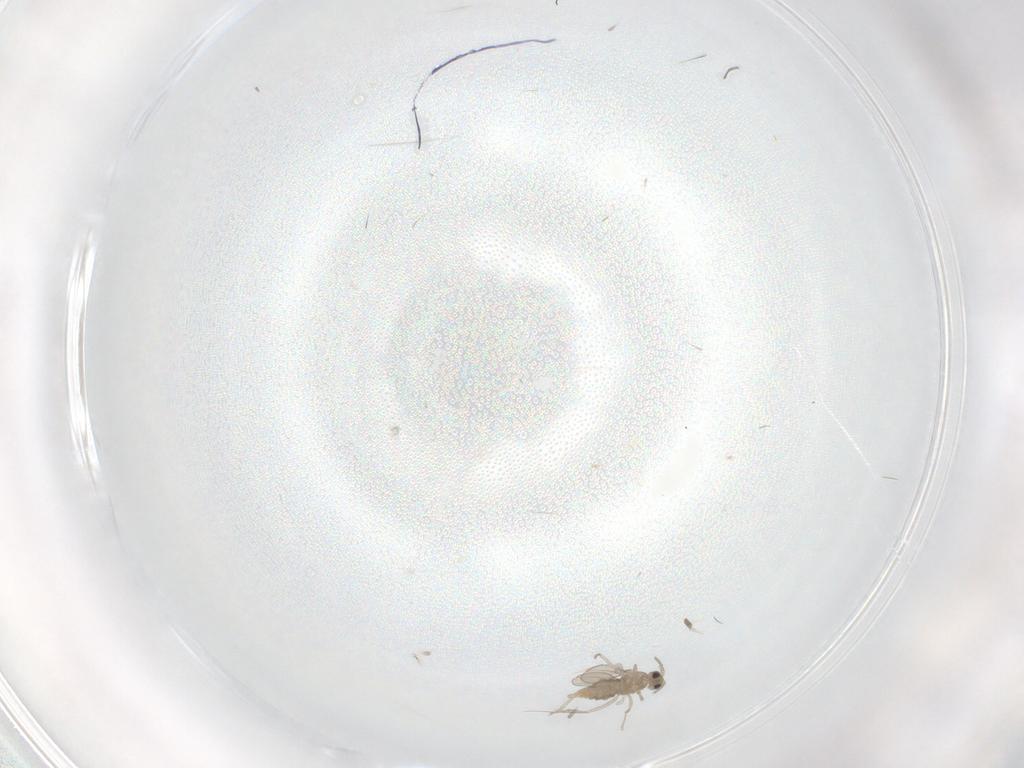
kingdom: Animalia
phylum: Arthropoda
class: Insecta
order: Diptera
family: Cecidomyiidae
